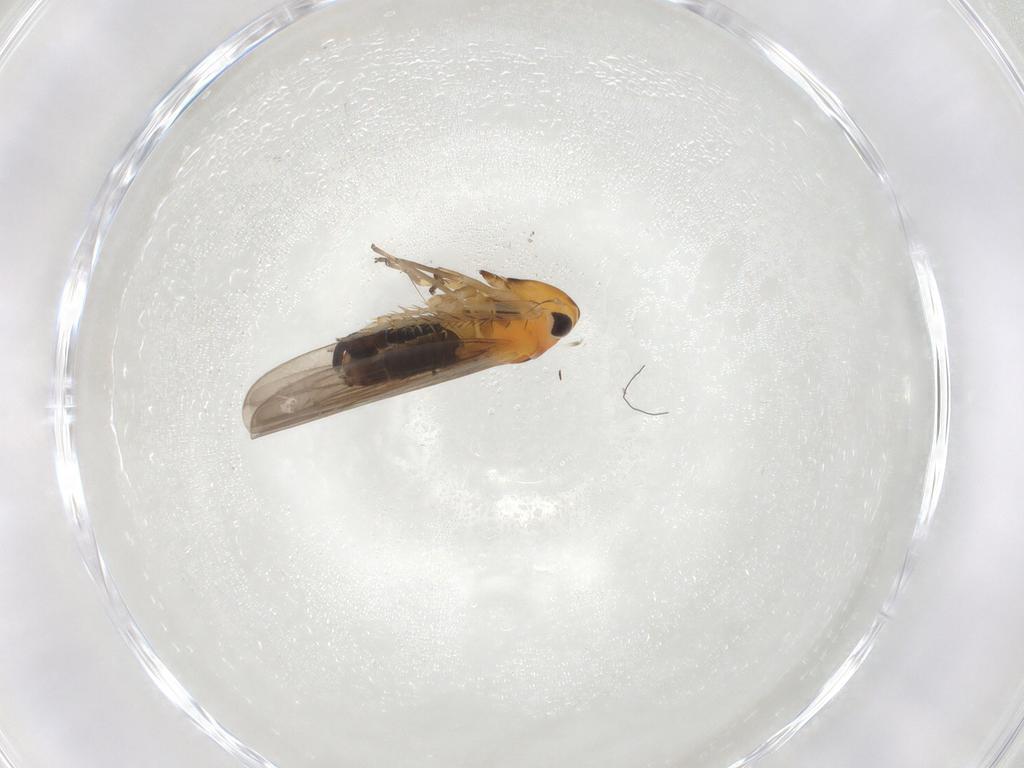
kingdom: Animalia
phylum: Arthropoda
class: Insecta
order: Hemiptera
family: Cicadellidae
